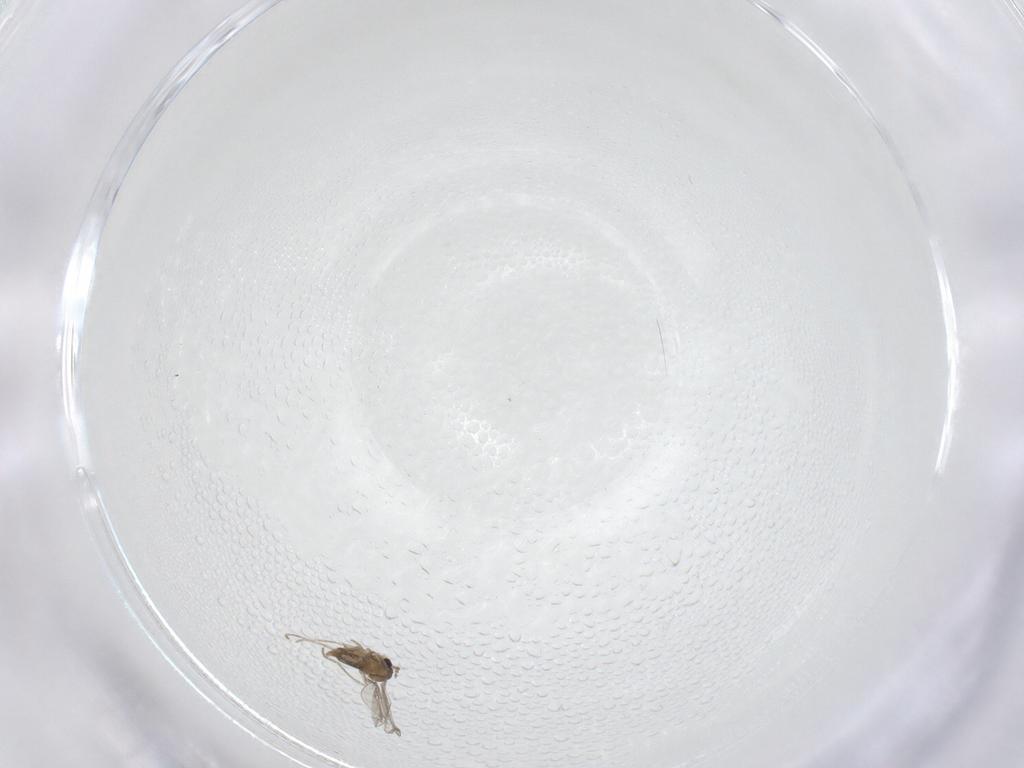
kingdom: Animalia
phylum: Arthropoda
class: Insecta
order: Diptera
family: Cecidomyiidae
